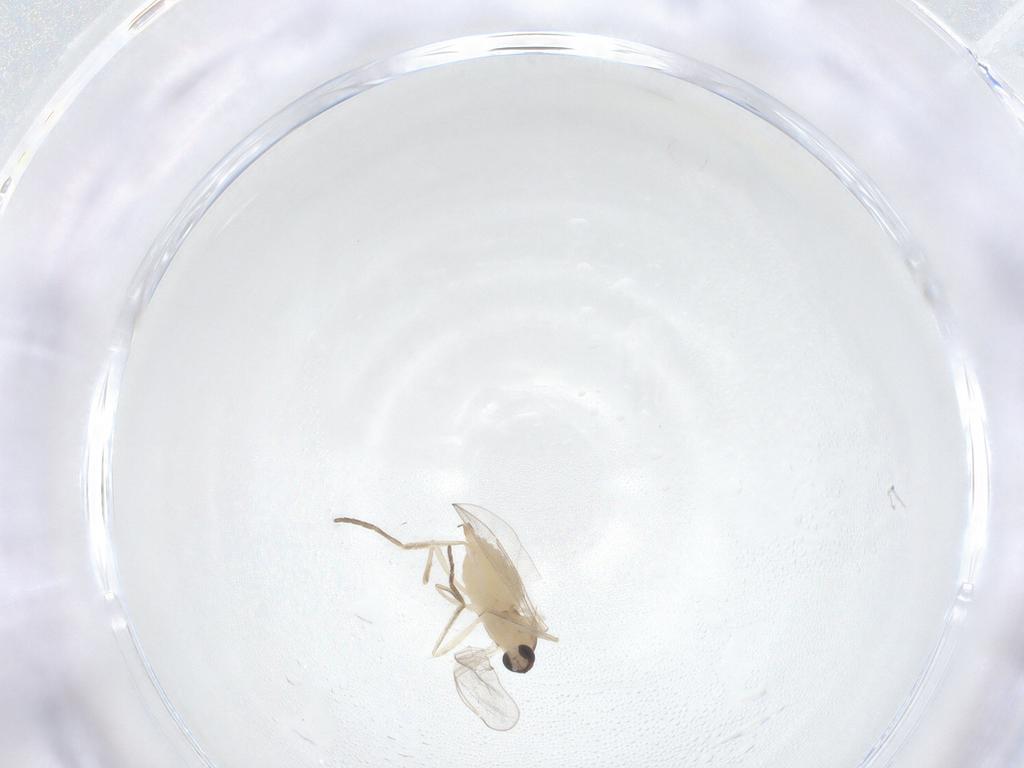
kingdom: Animalia
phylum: Arthropoda
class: Insecta
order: Diptera
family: Cecidomyiidae
